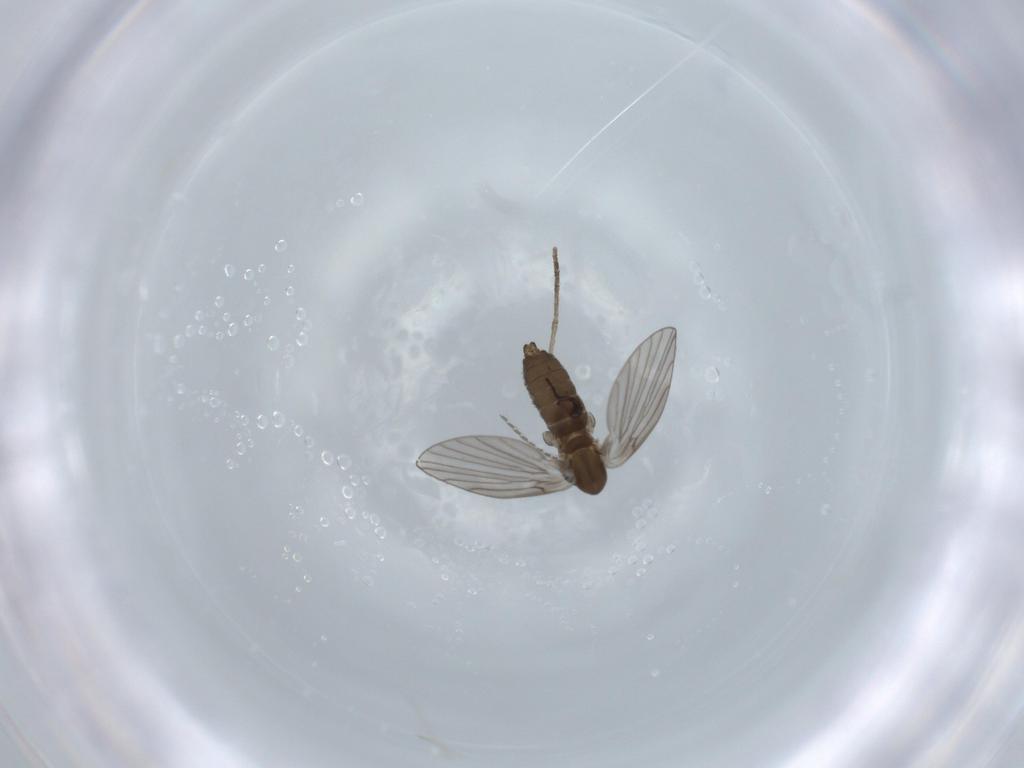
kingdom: Animalia
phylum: Arthropoda
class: Insecta
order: Diptera
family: Psychodidae
